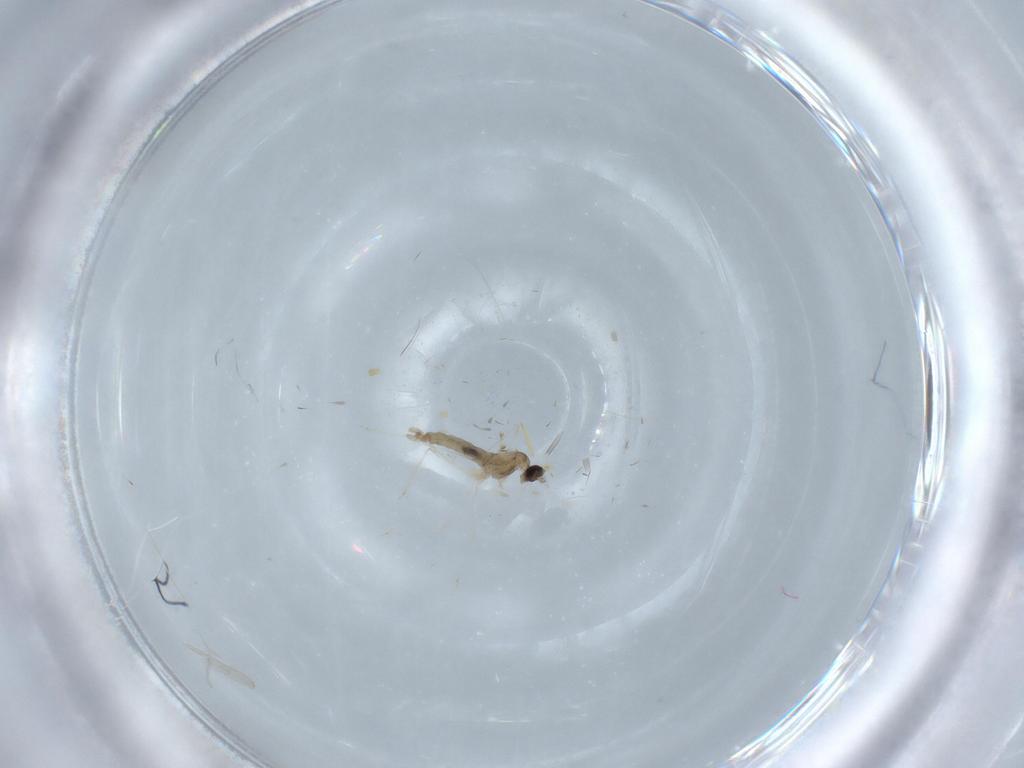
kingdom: Animalia
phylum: Arthropoda
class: Insecta
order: Diptera
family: Cecidomyiidae
